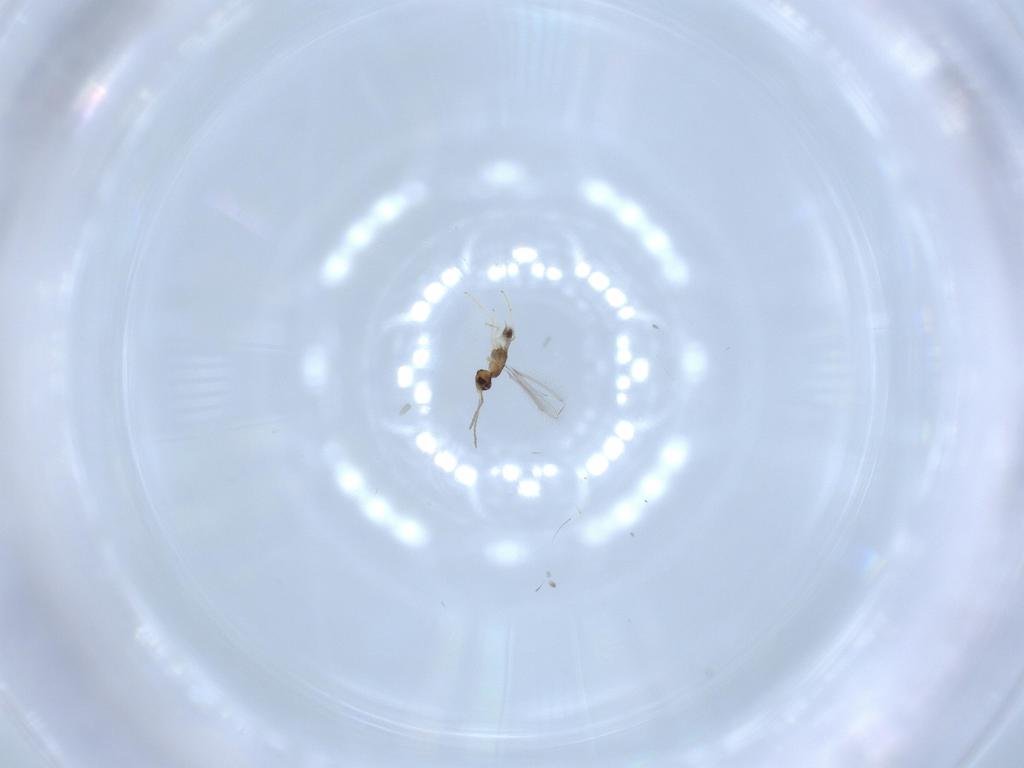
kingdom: Animalia
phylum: Arthropoda
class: Insecta
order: Hymenoptera
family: Mymaridae
